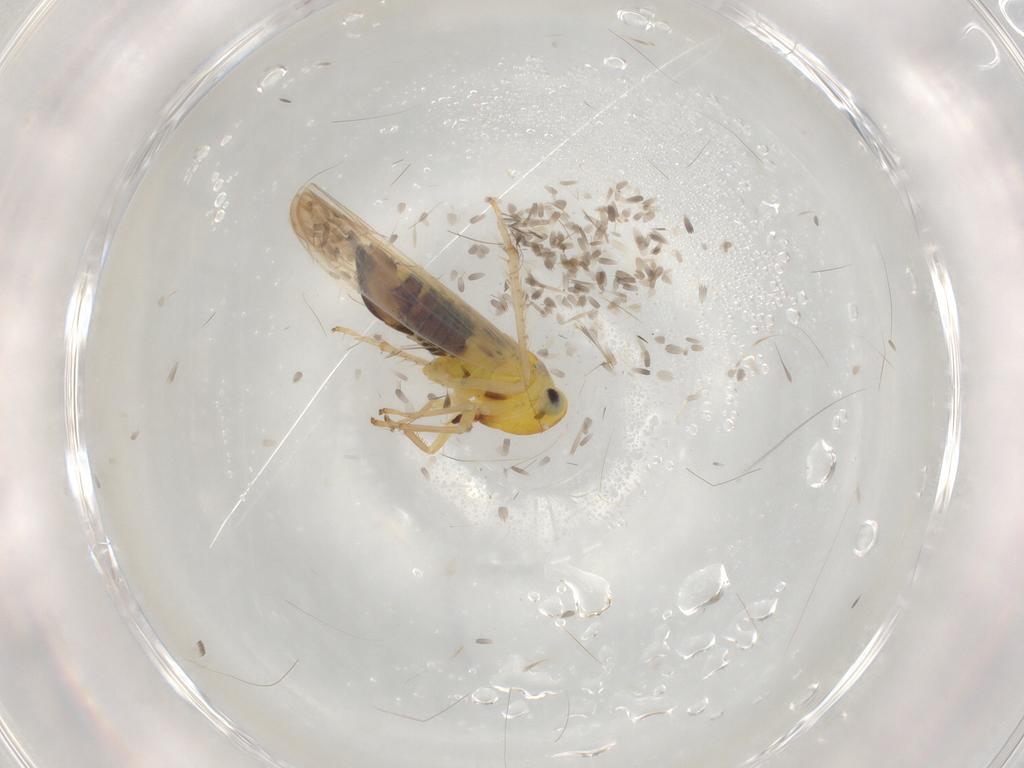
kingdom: Animalia
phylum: Arthropoda
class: Insecta
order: Hemiptera
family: Cicadellidae
